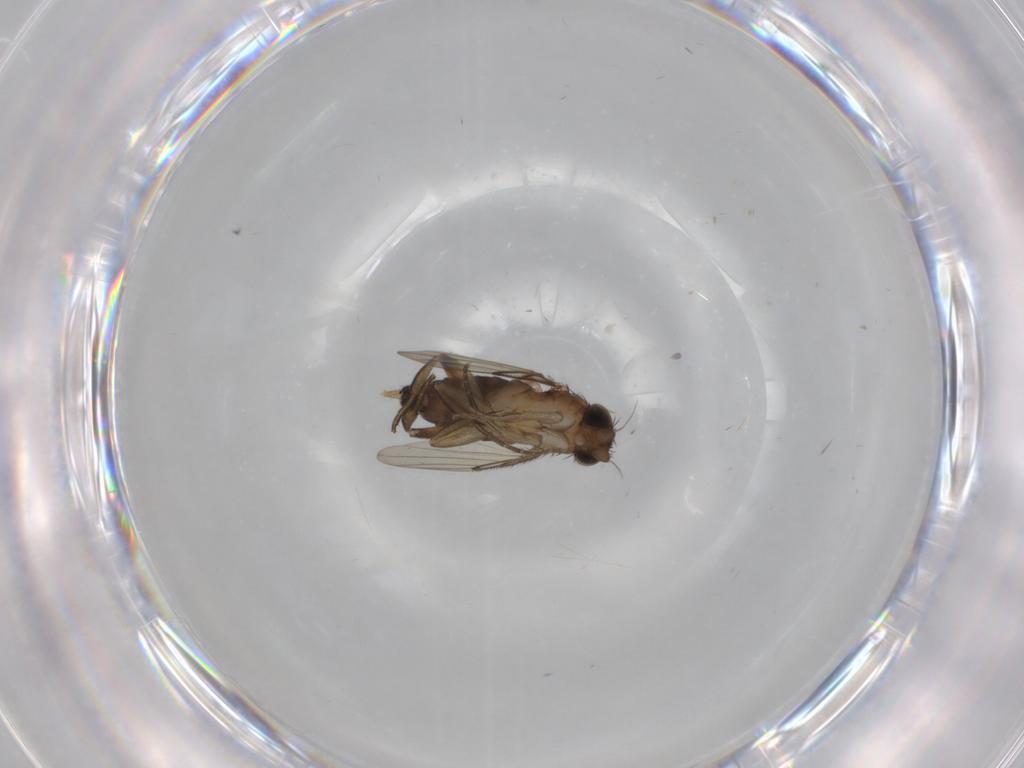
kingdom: Animalia
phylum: Arthropoda
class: Insecta
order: Diptera
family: Phoridae
